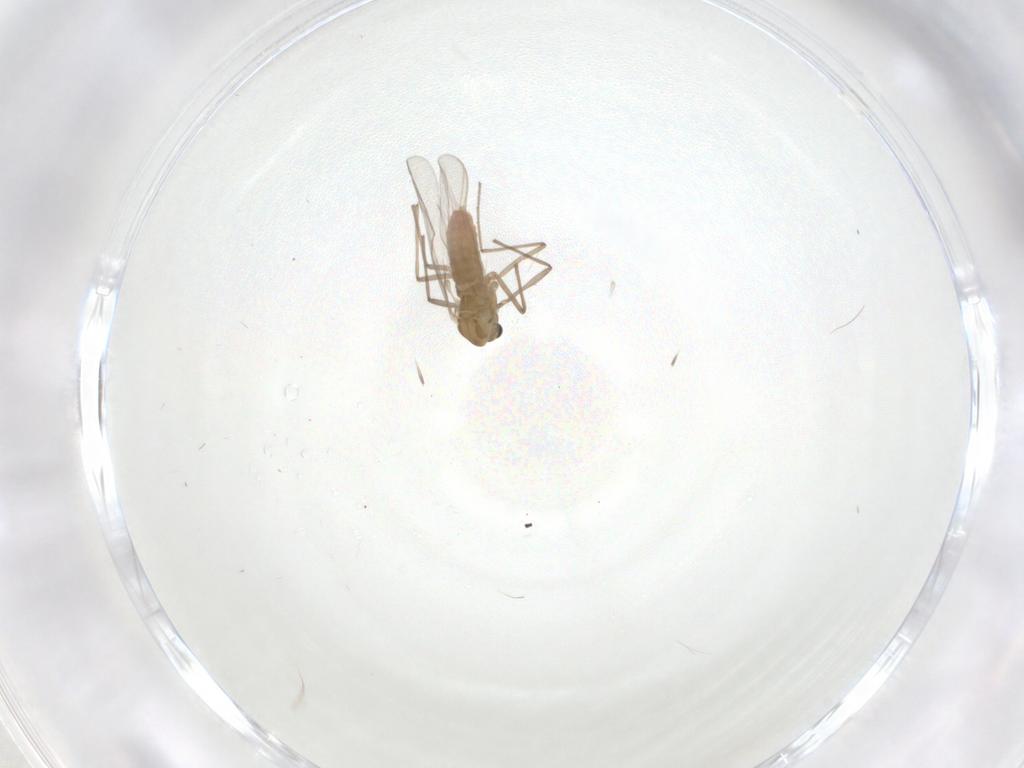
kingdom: Animalia
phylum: Arthropoda
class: Insecta
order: Diptera
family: Chironomidae
